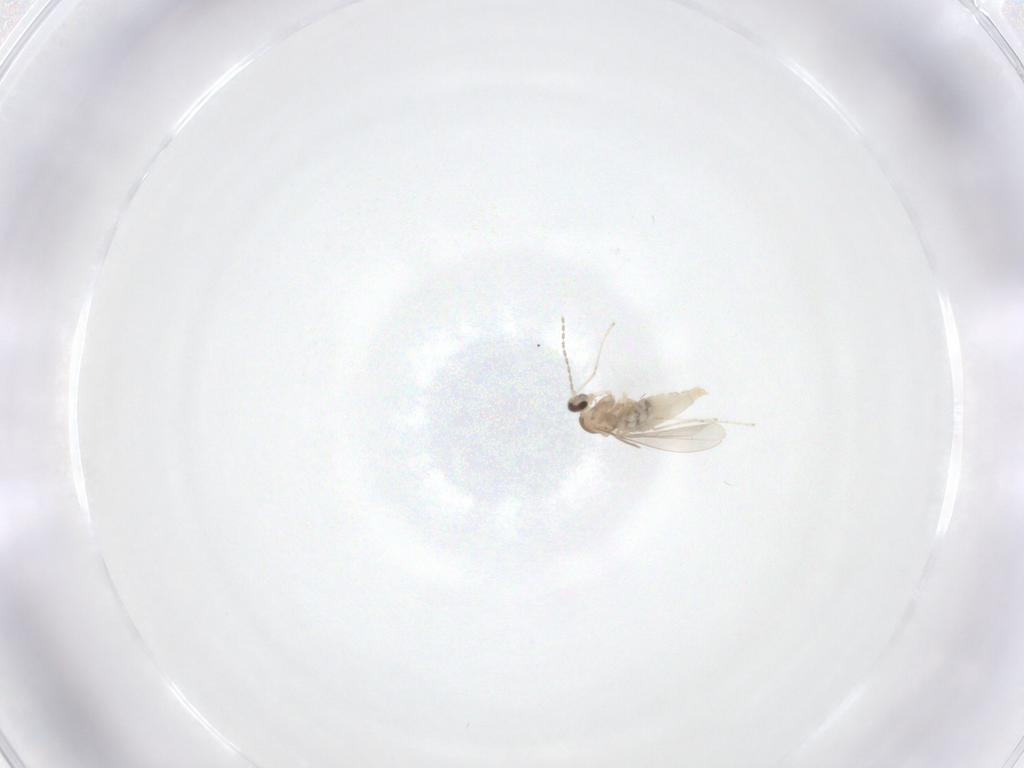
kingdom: Animalia
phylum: Arthropoda
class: Insecta
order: Diptera
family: Cecidomyiidae
